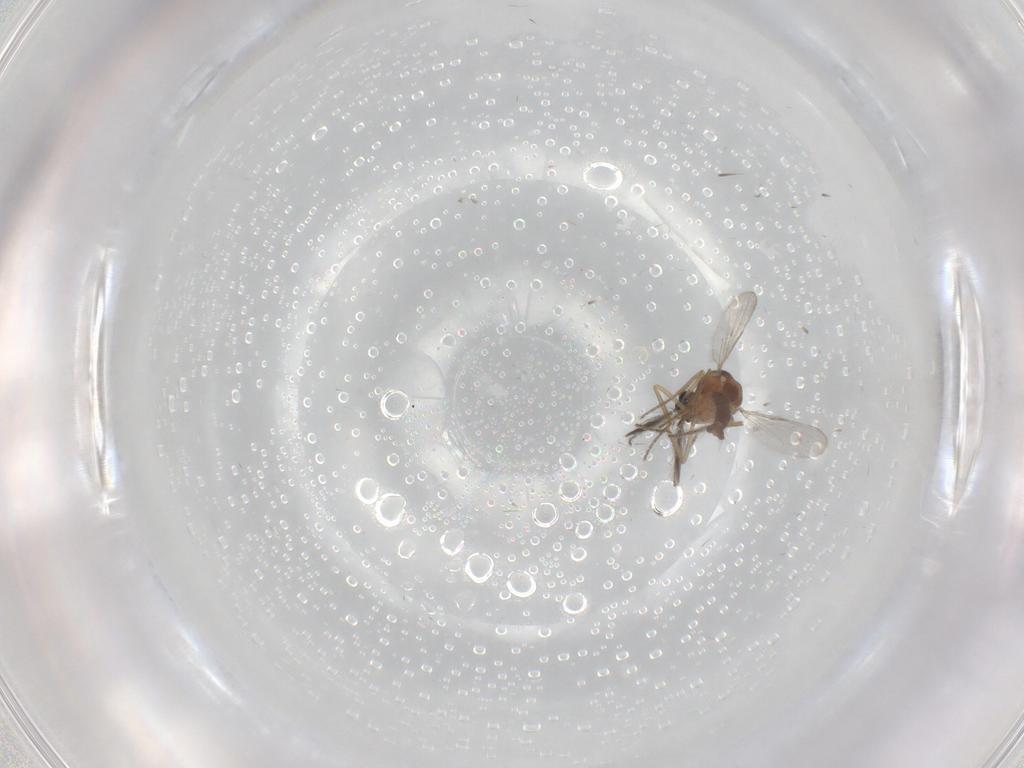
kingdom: Animalia
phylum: Arthropoda
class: Insecta
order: Diptera
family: Ceratopogonidae
